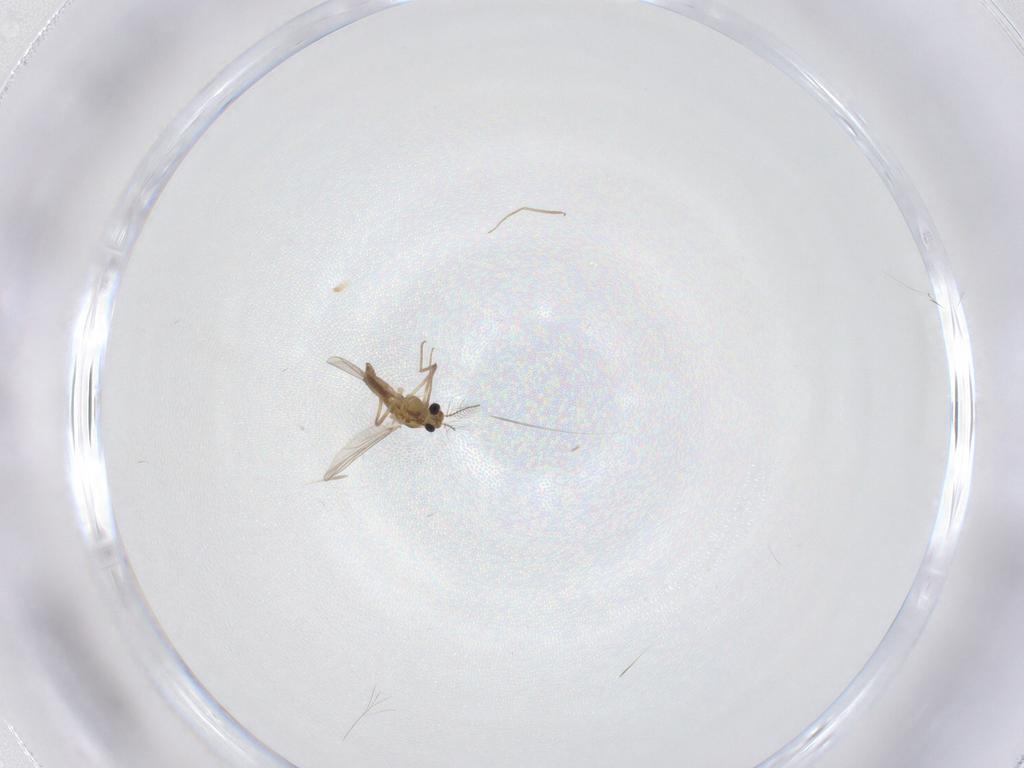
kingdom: Animalia
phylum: Arthropoda
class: Insecta
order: Diptera
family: Chironomidae
